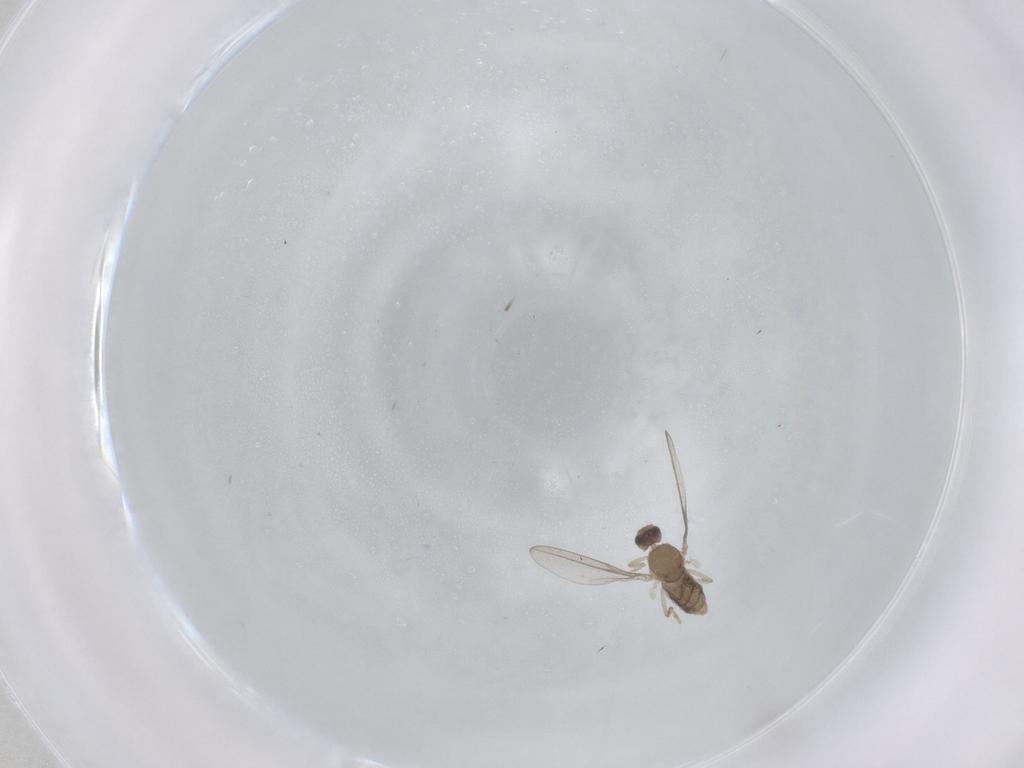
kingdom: Animalia
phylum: Arthropoda
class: Insecta
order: Diptera
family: Cecidomyiidae
